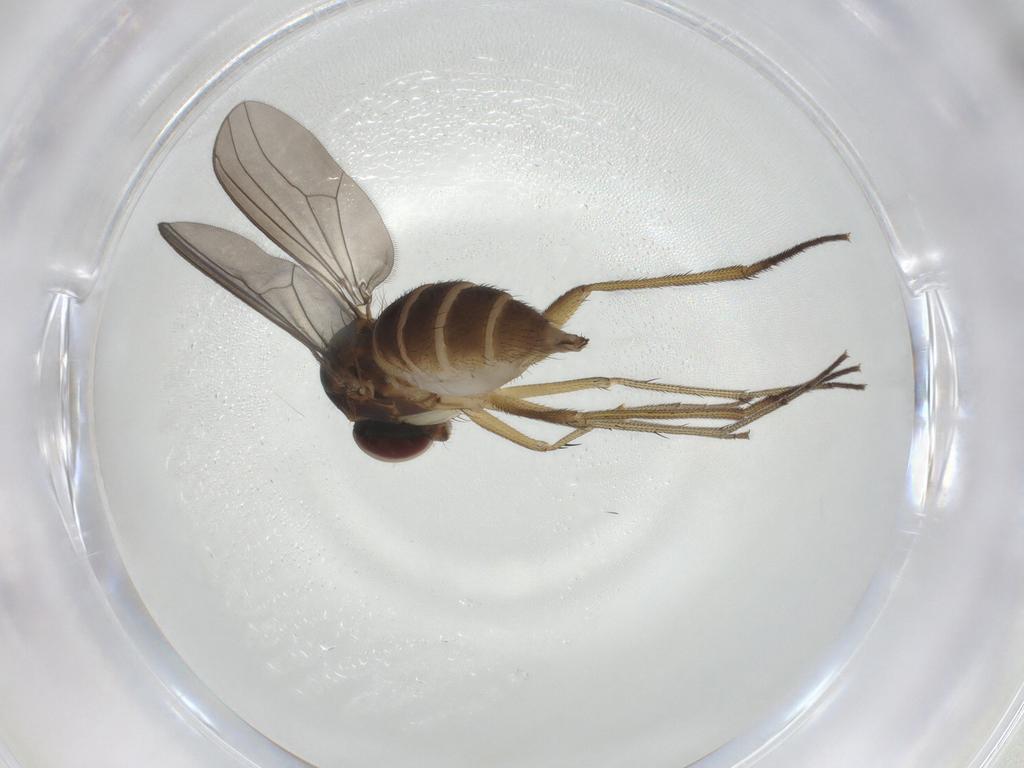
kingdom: Animalia
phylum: Arthropoda
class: Insecta
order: Diptera
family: Dolichopodidae
